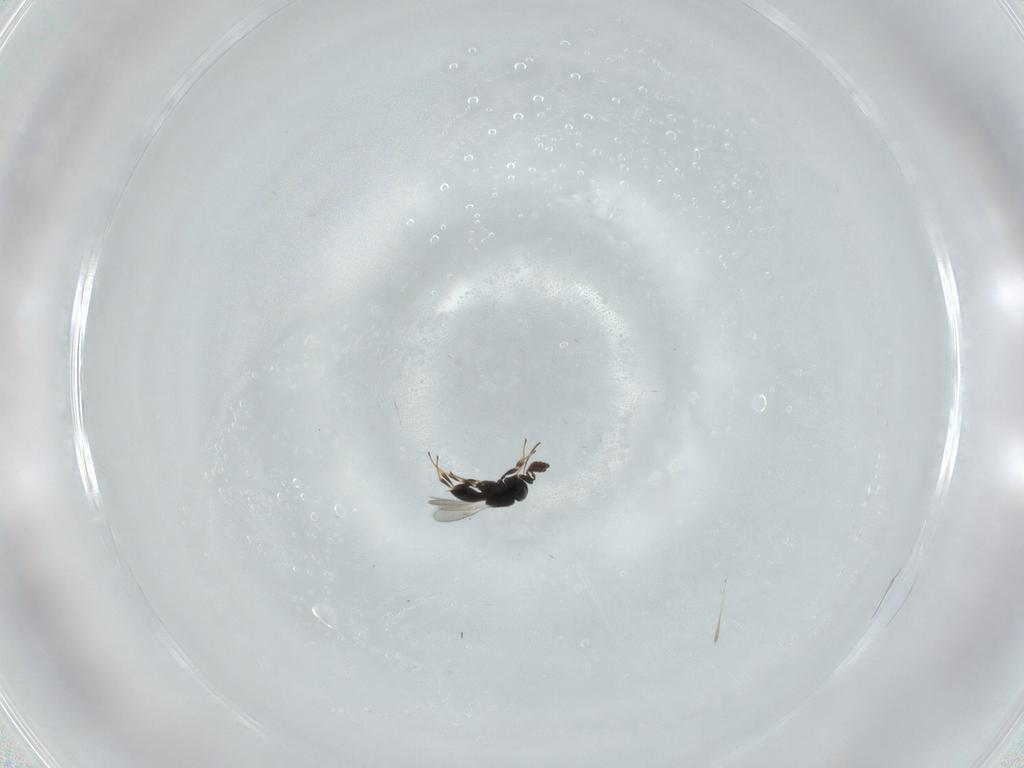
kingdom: Animalia
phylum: Arthropoda
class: Insecta
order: Hymenoptera
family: Scelionidae
